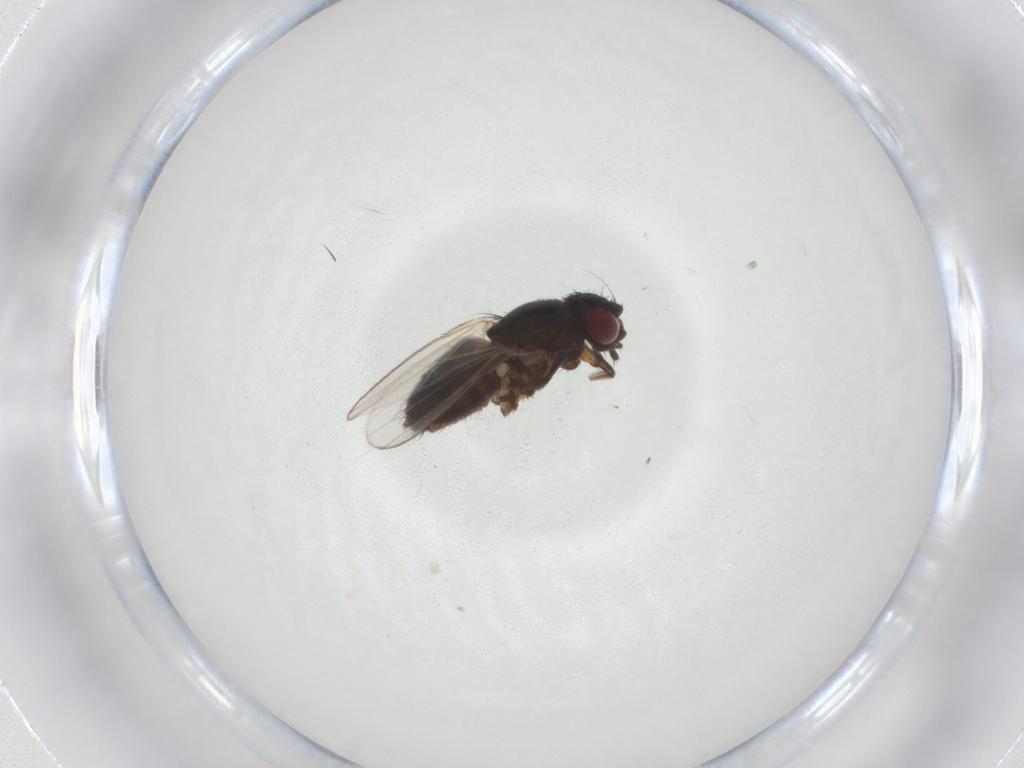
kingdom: Animalia
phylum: Arthropoda
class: Insecta
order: Diptera
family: Milichiidae
